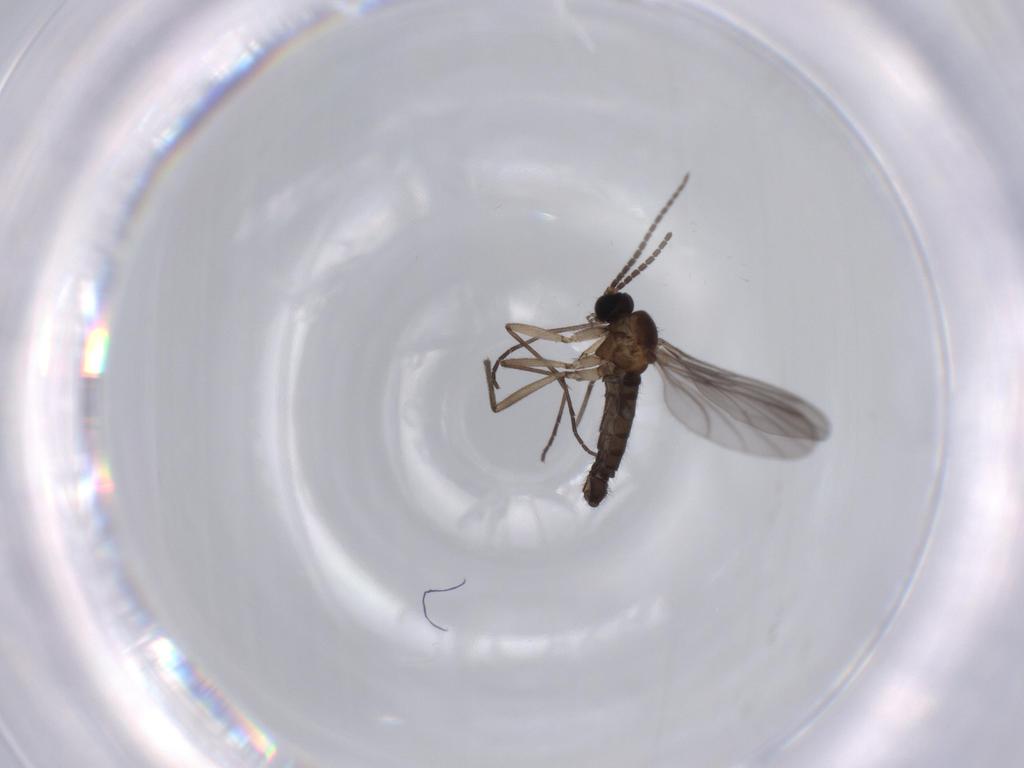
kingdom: Animalia
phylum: Arthropoda
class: Insecta
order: Diptera
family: Sciaridae
